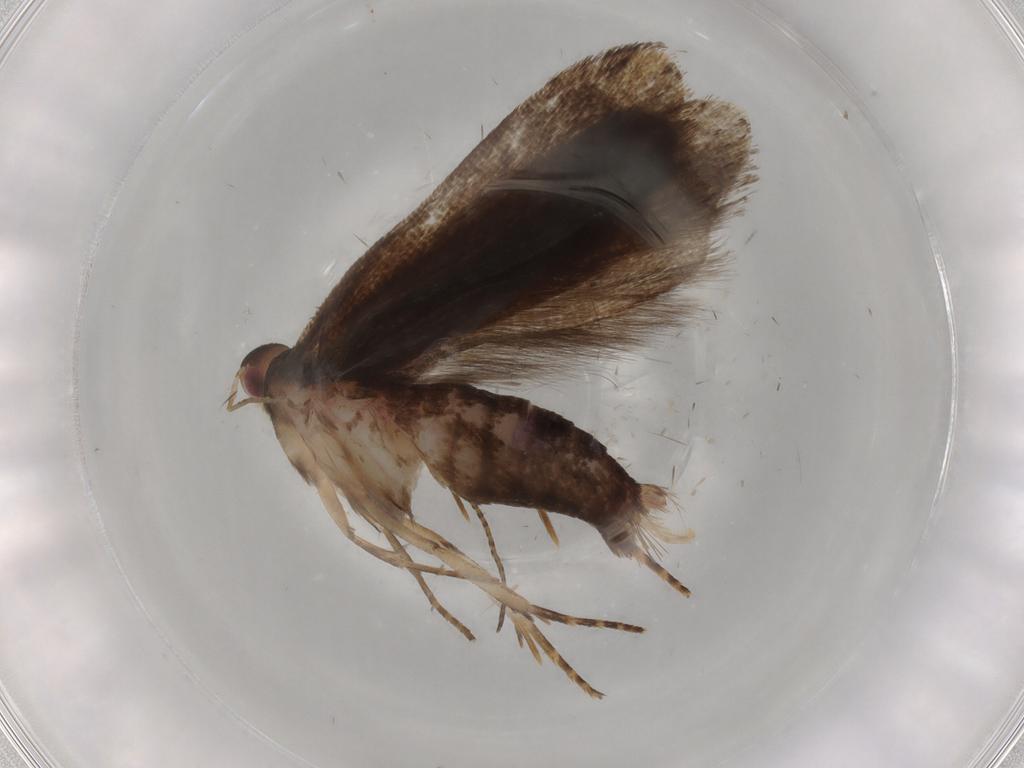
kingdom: Animalia
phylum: Arthropoda
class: Insecta
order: Lepidoptera
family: Gelechiidae
